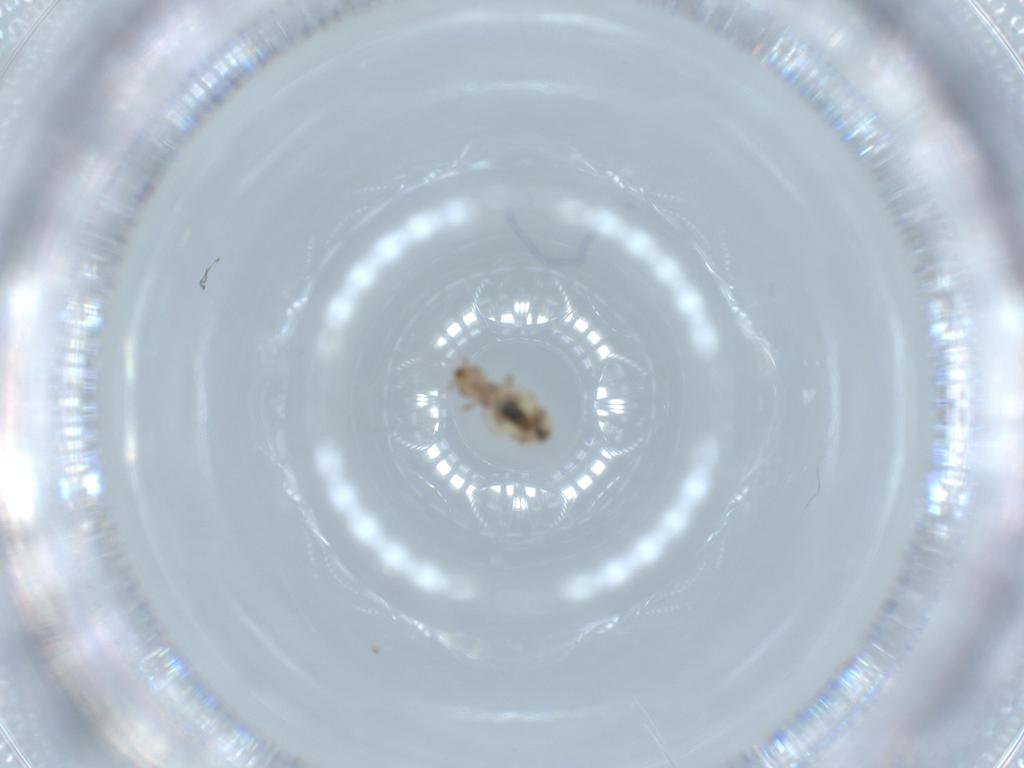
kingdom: Animalia
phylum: Arthropoda
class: Insecta
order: Psocodea
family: Liposcelididae
